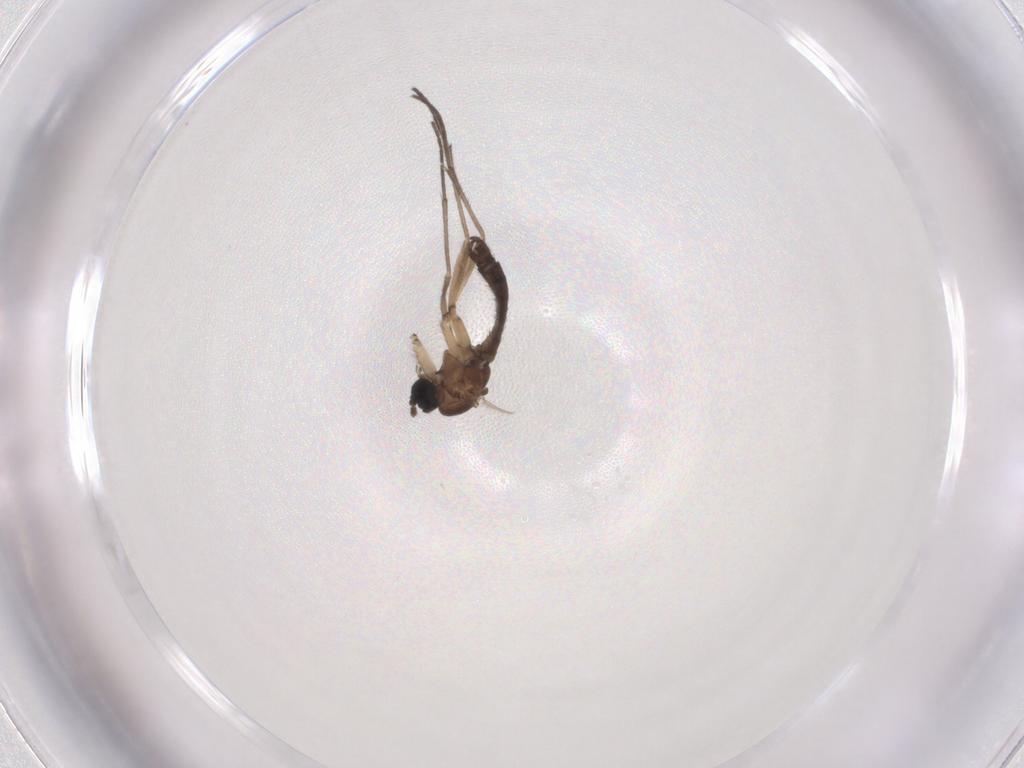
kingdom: Animalia
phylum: Arthropoda
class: Insecta
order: Diptera
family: Sciaridae
